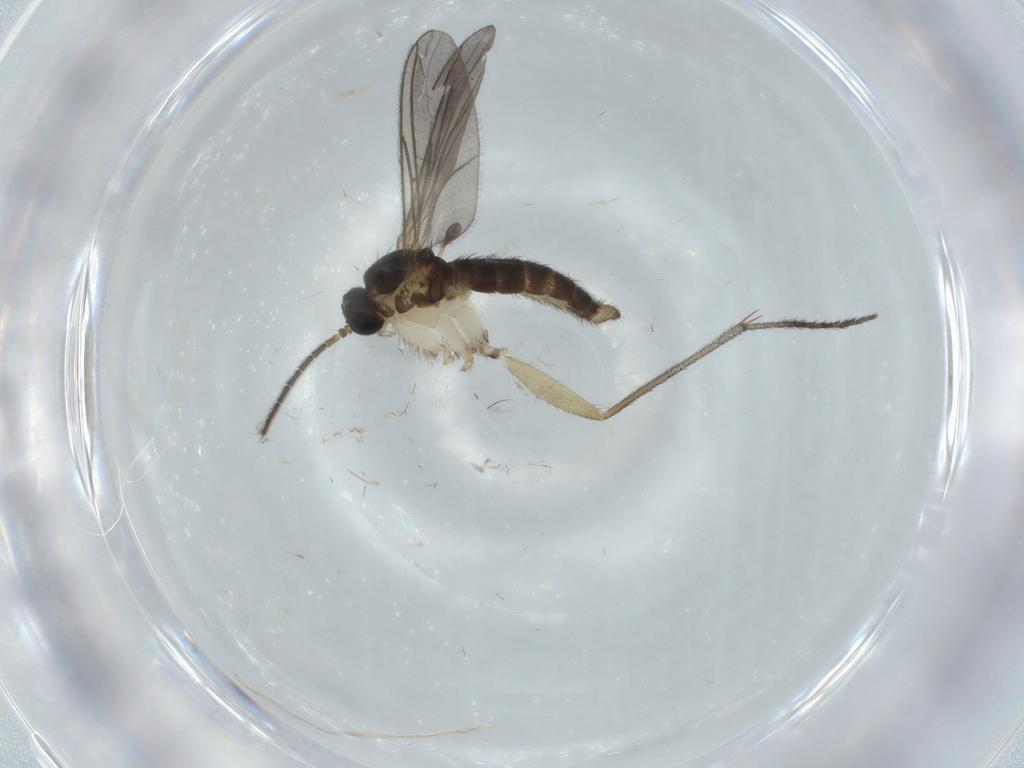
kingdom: Animalia
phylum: Arthropoda
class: Insecta
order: Diptera
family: Sciaridae
